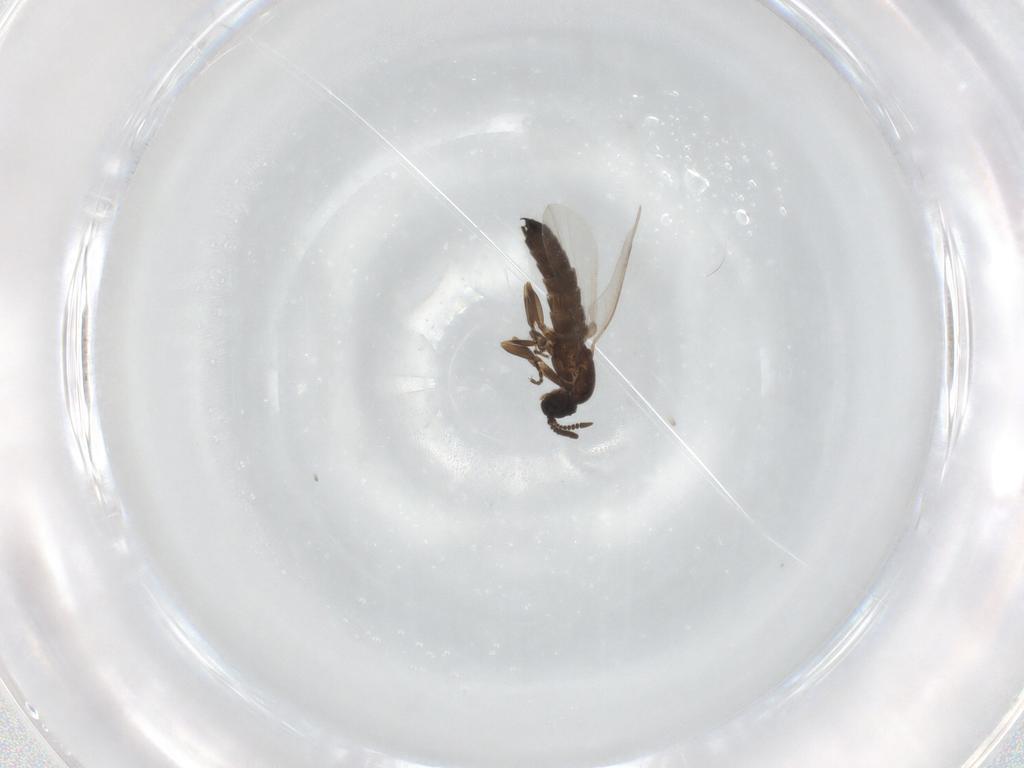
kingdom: Animalia
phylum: Arthropoda
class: Insecta
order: Diptera
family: Scatopsidae
